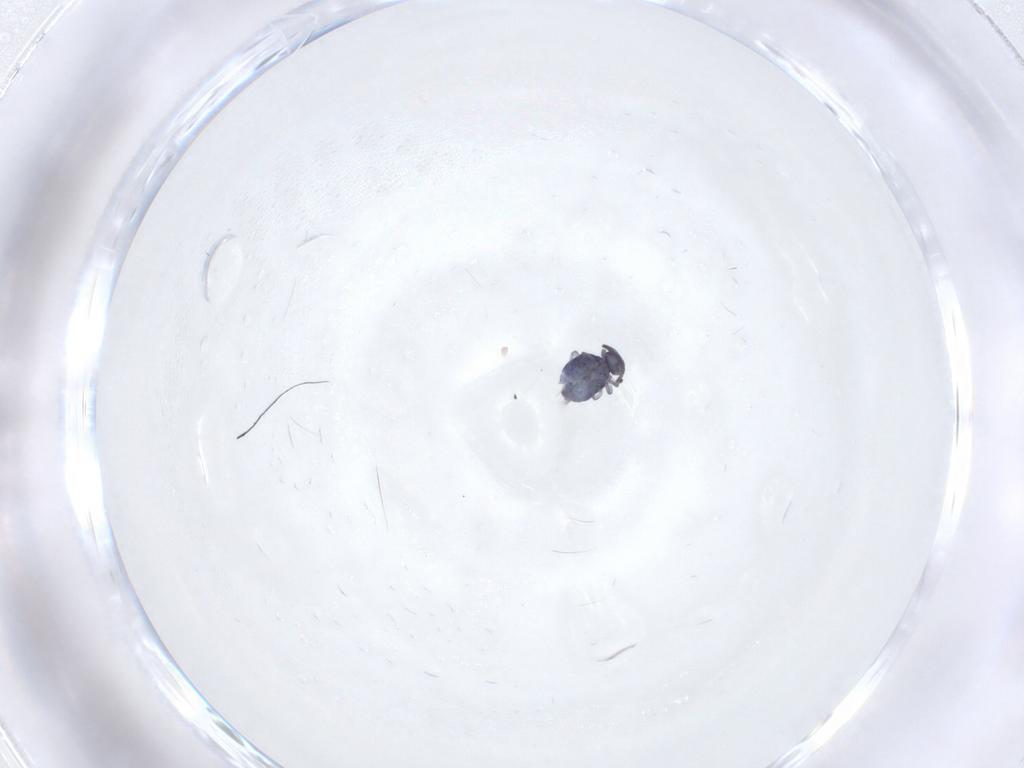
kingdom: Animalia
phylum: Arthropoda
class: Collembola
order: Symphypleona
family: Katiannidae
